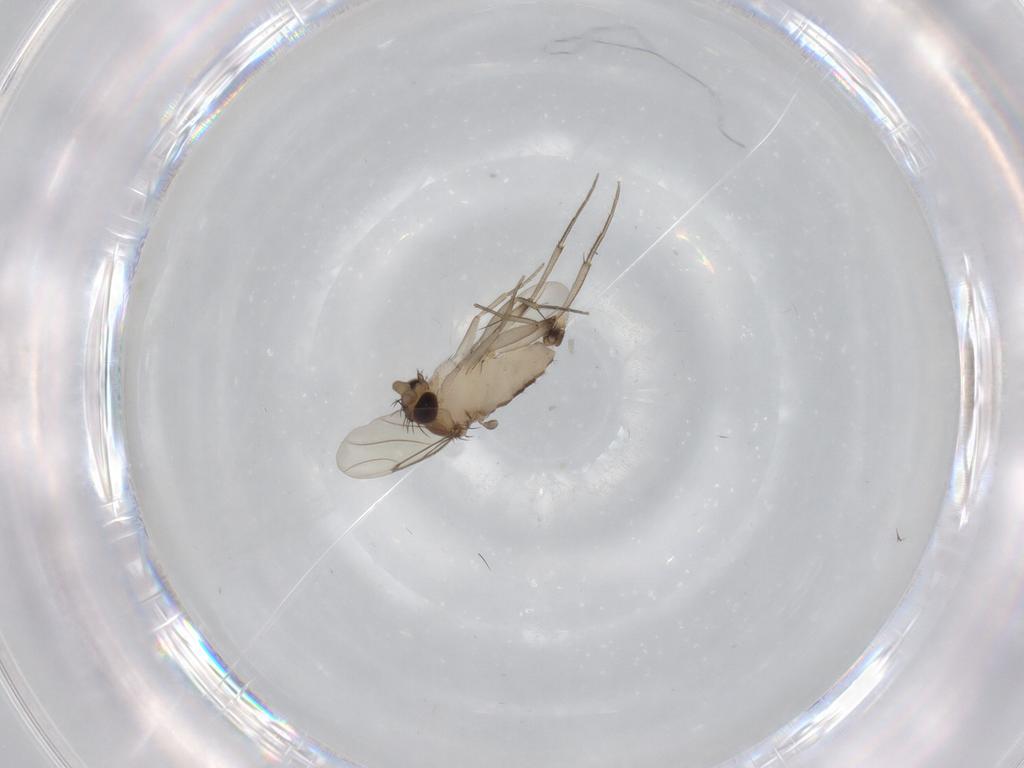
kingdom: Animalia
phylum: Arthropoda
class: Insecta
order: Diptera
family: Phoridae
